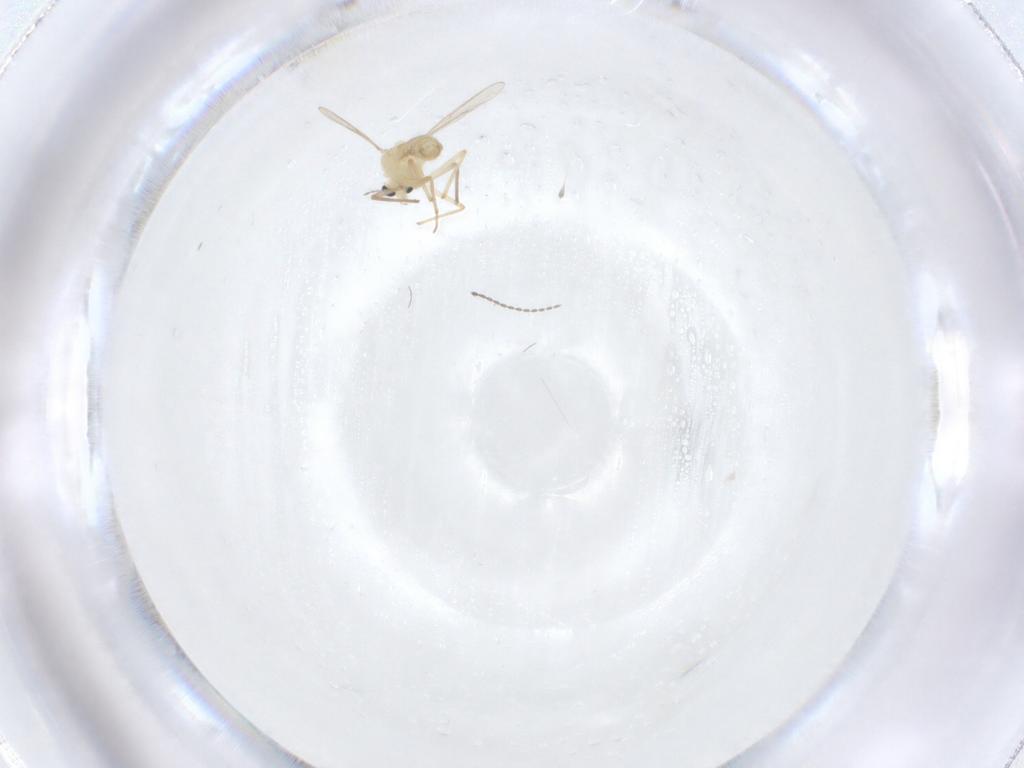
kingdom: Animalia
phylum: Arthropoda
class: Insecta
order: Diptera
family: Chironomidae
